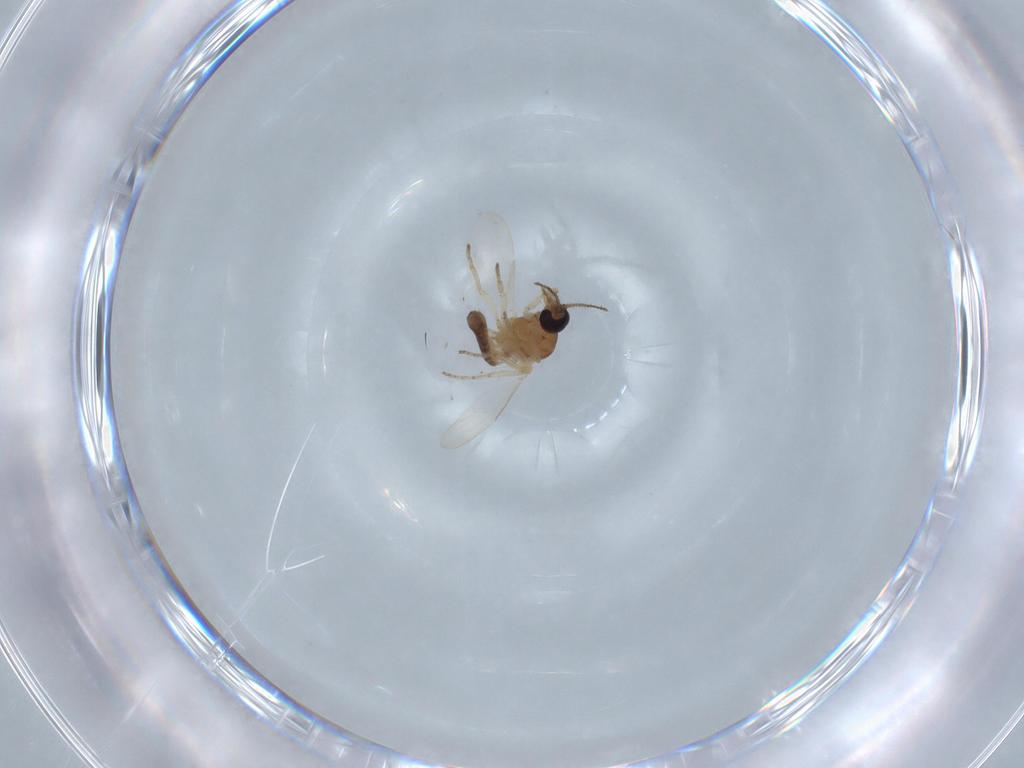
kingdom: Animalia
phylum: Arthropoda
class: Insecta
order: Diptera
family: Ceratopogonidae
